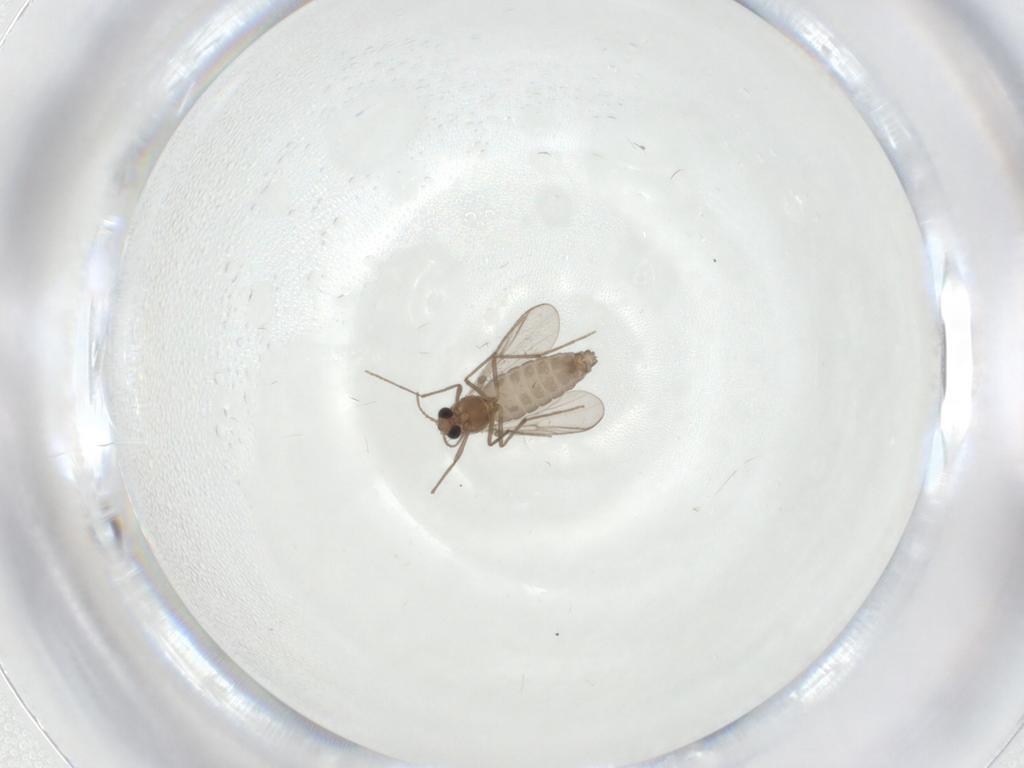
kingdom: Animalia
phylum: Arthropoda
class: Insecta
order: Diptera
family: Chironomidae
